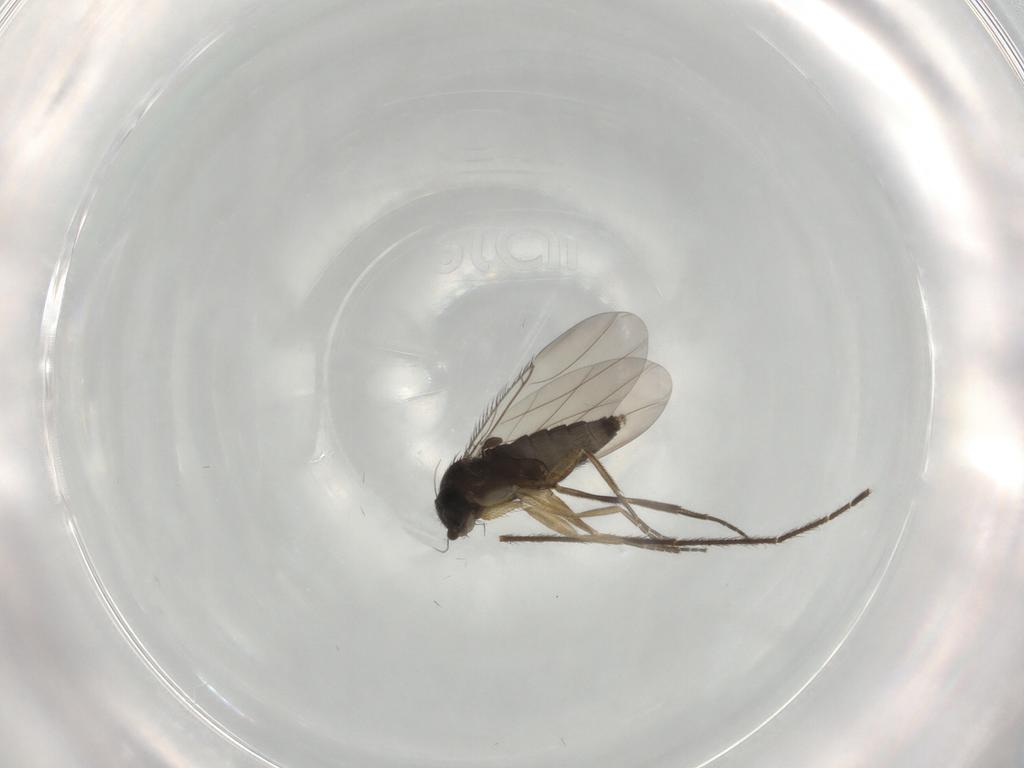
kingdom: Animalia
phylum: Arthropoda
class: Insecta
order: Diptera
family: Phoridae
